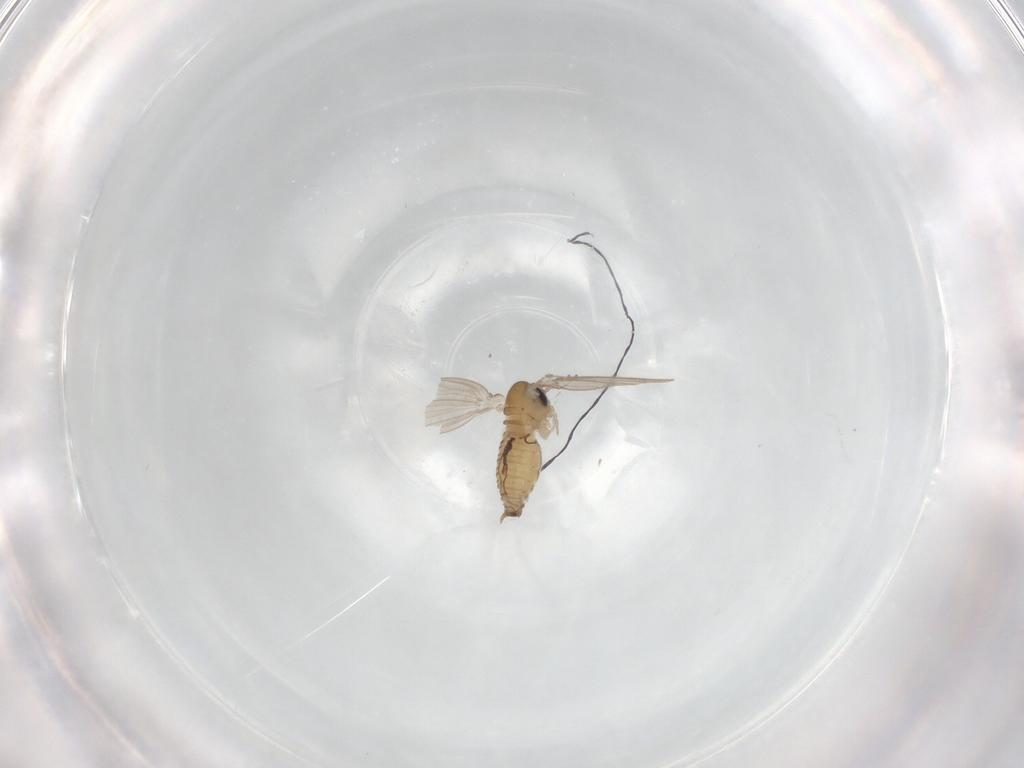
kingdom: Animalia
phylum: Arthropoda
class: Insecta
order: Diptera
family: Psychodidae
